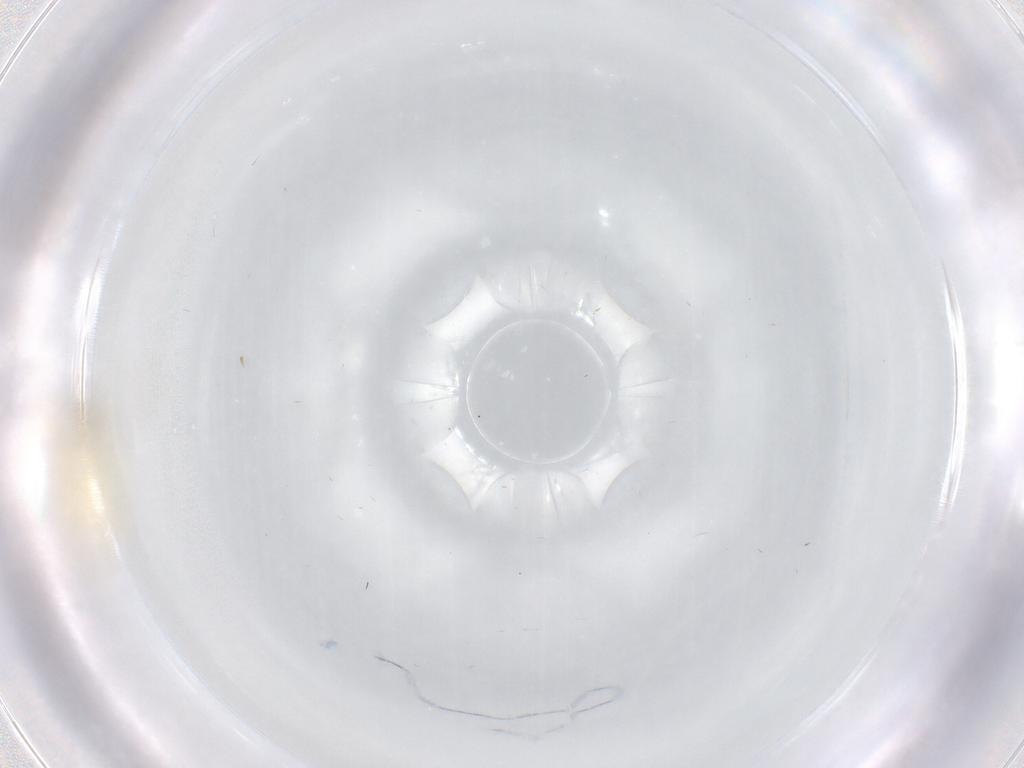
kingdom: Animalia
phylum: Arthropoda
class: Insecta
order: Diptera
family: Cecidomyiidae
